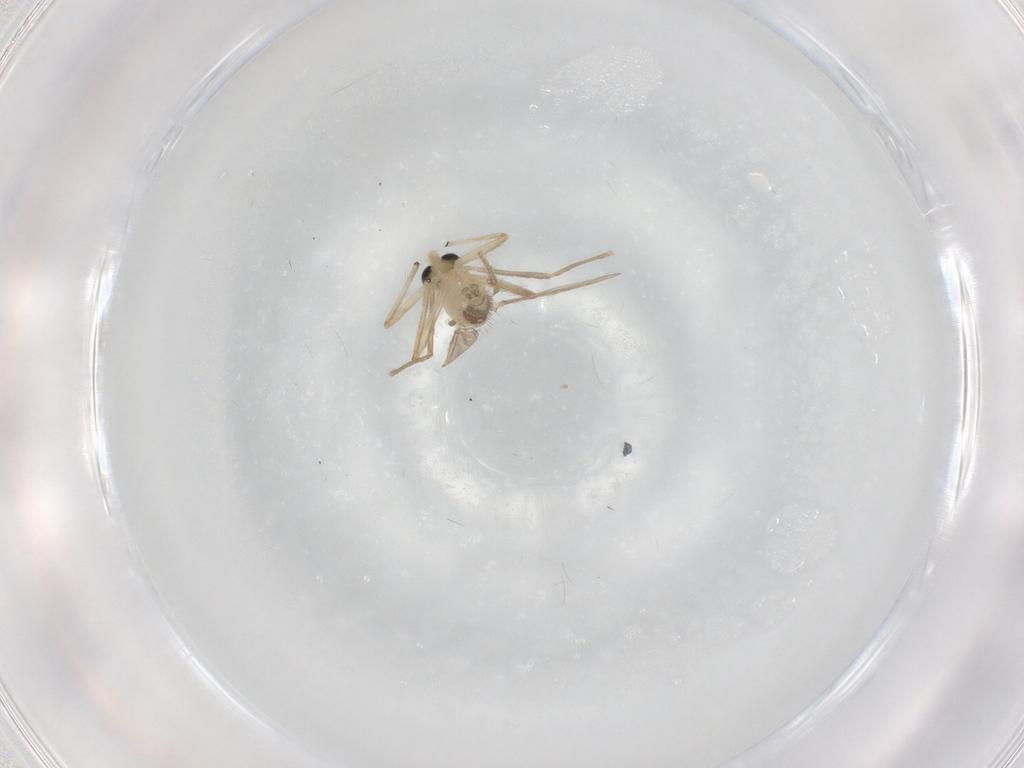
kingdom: Animalia
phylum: Arthropoda
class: Insecta
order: Diptera
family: Chironomidae
